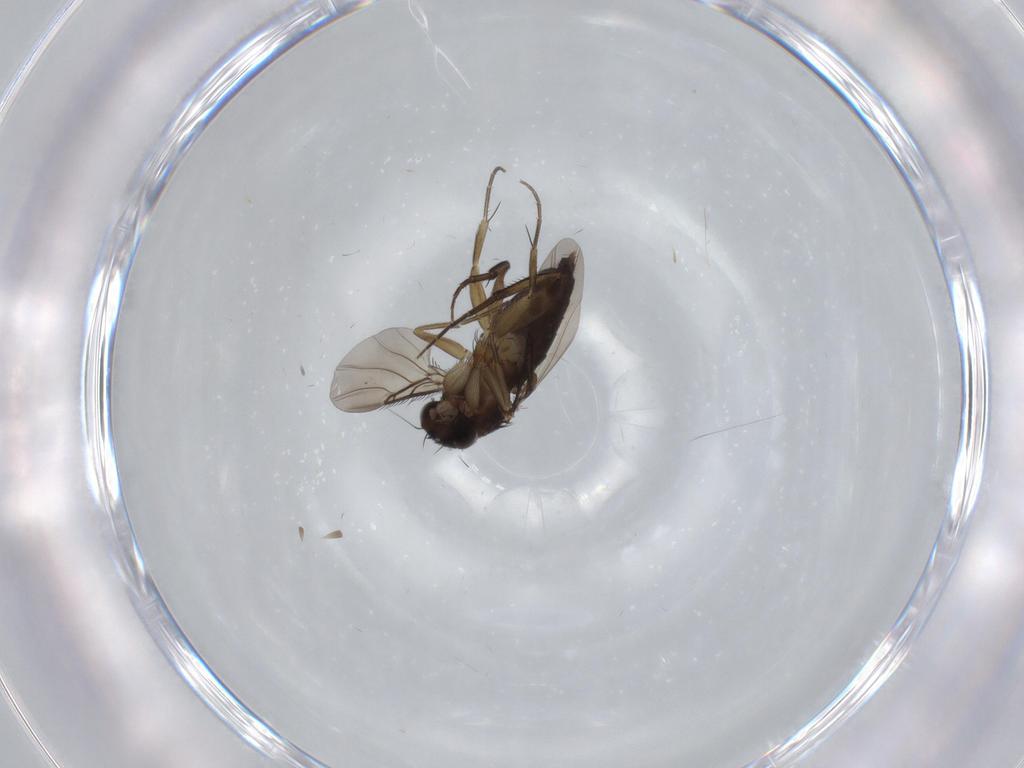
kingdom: Animalia
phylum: Arthropoda
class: Insecta
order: Diptera
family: Phoridae
